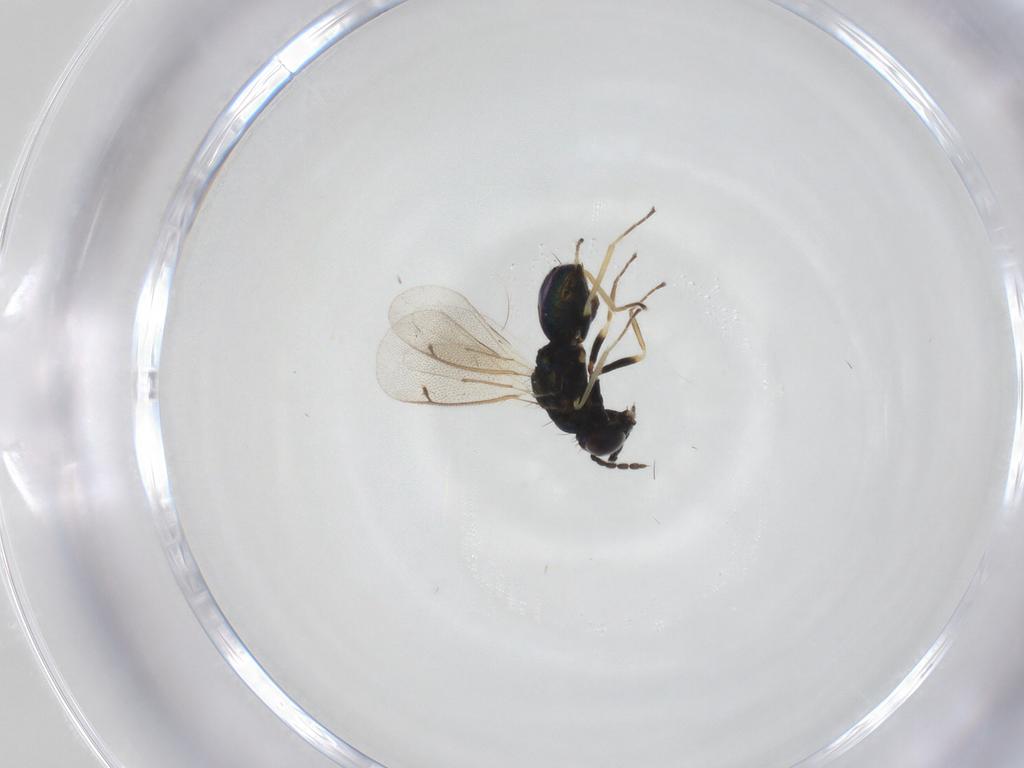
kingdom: Animalia
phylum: Arthropoda
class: Insecta
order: Hymenoptera
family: Eulophidae
